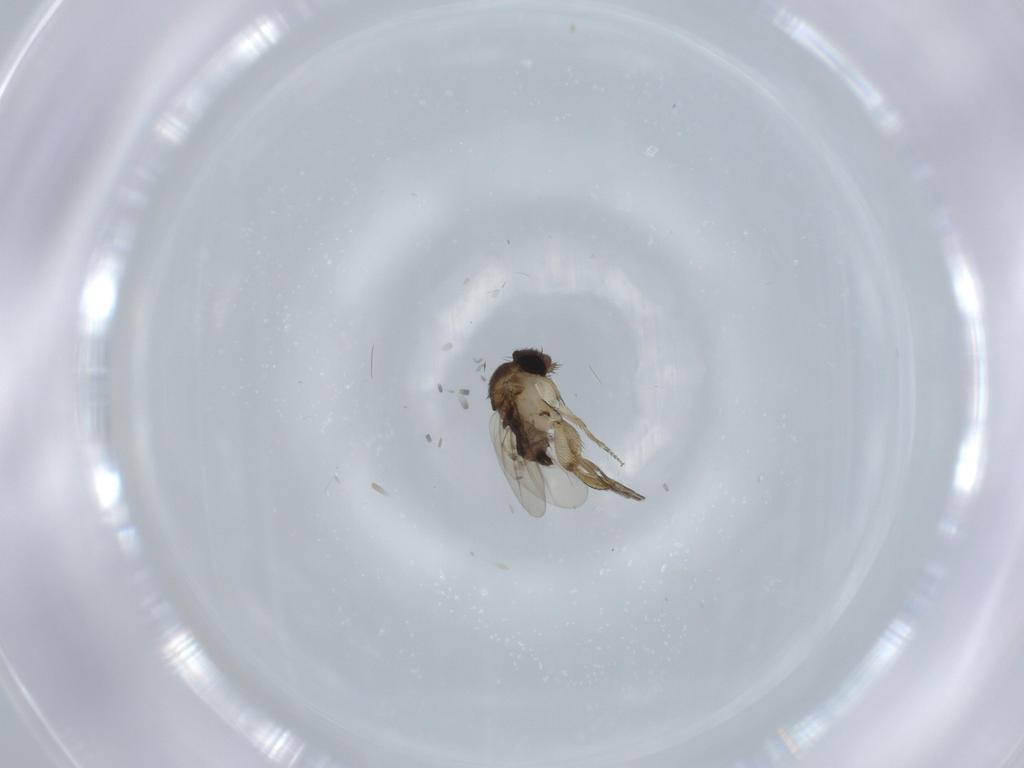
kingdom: Animalia
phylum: Arthropoda
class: Insecta
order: Diptera
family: Phoridae
